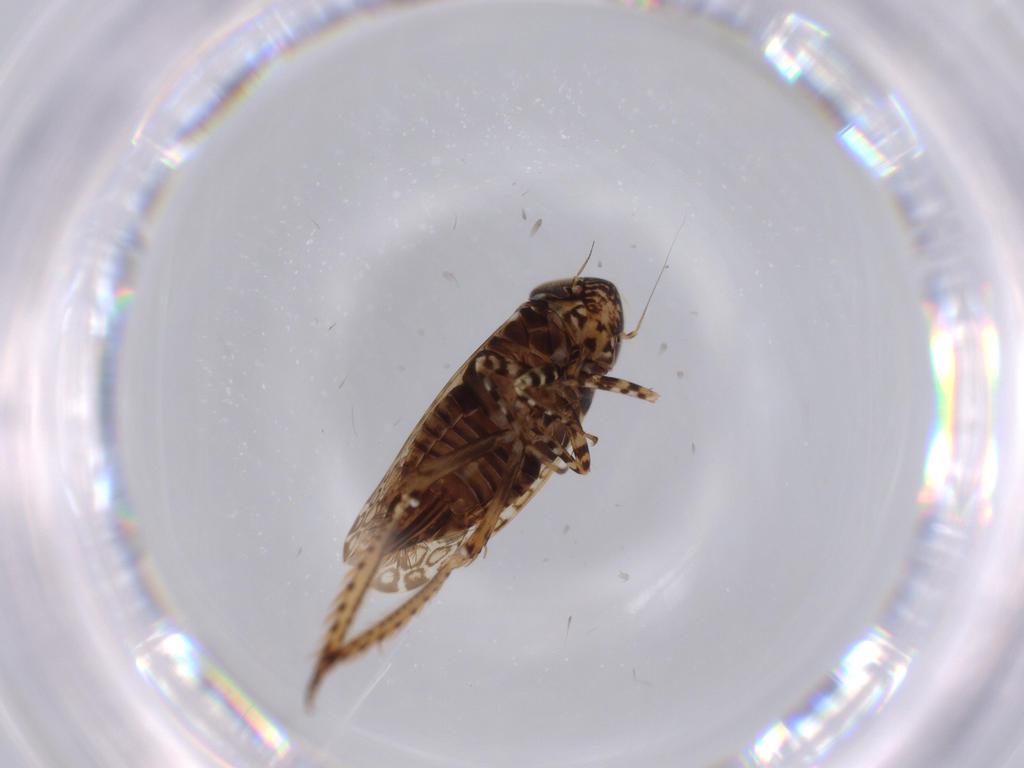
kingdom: Animalia
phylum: Arthropoda
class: Insecta
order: Hemiptera
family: Cicadellidae
